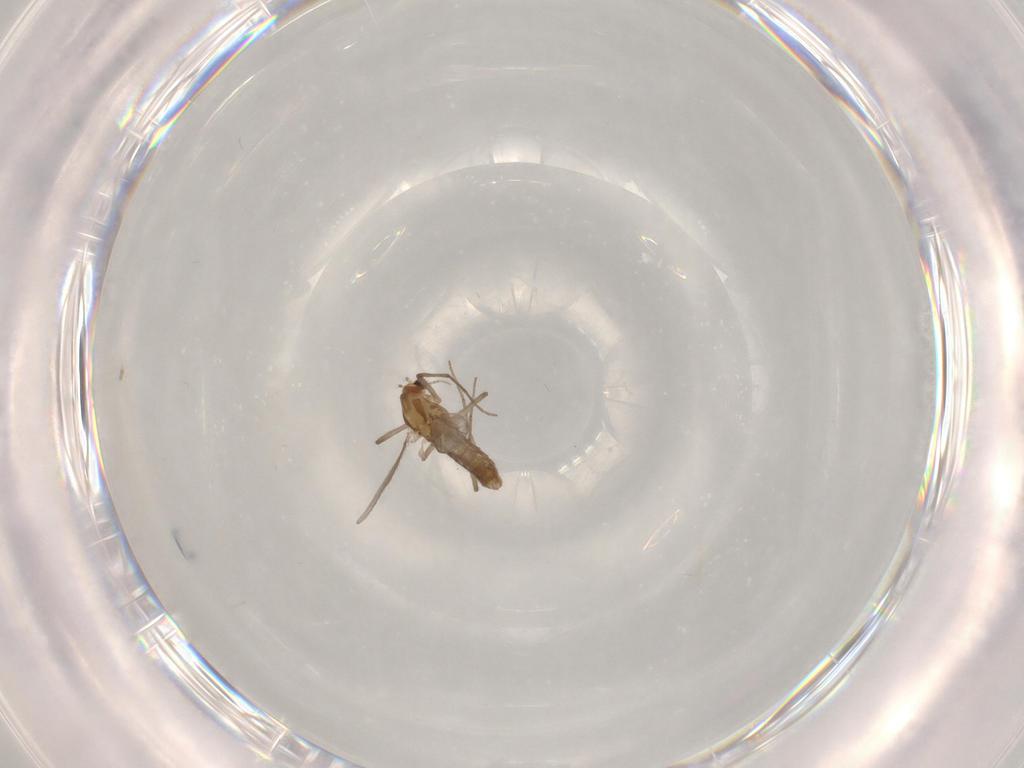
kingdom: Animalia
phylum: Arthropoda
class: Insecta
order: Diptera
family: Chironomidae
